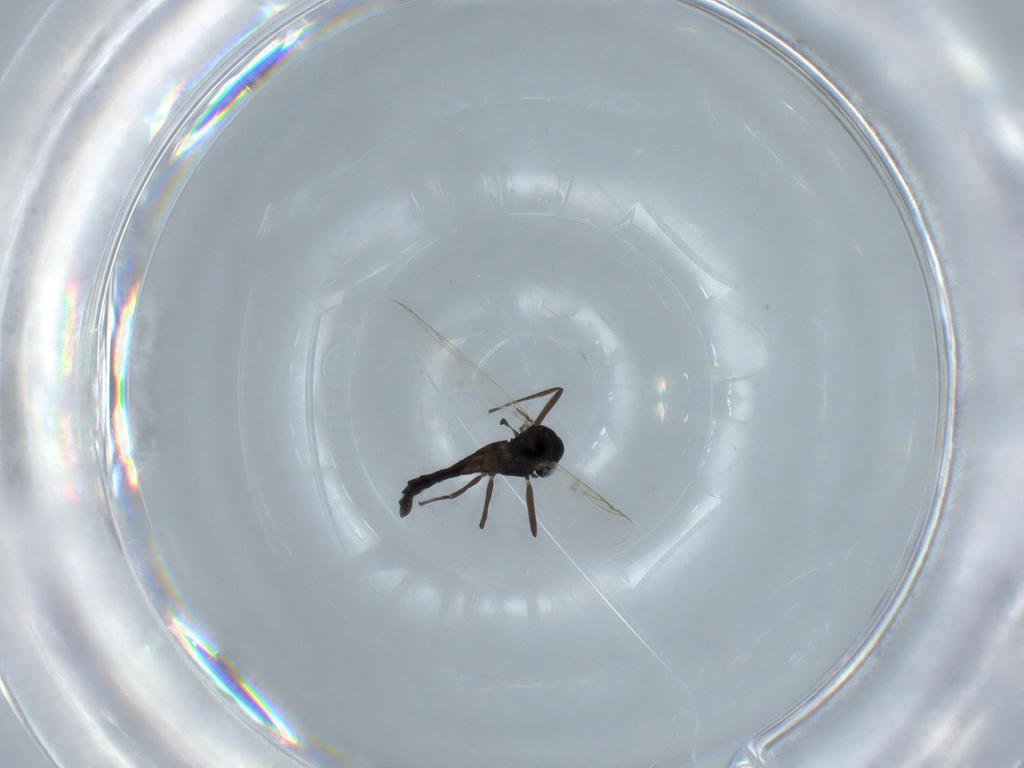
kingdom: Animalia
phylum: Arthropoda
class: Insecta
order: Diptera
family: Chironomidae
